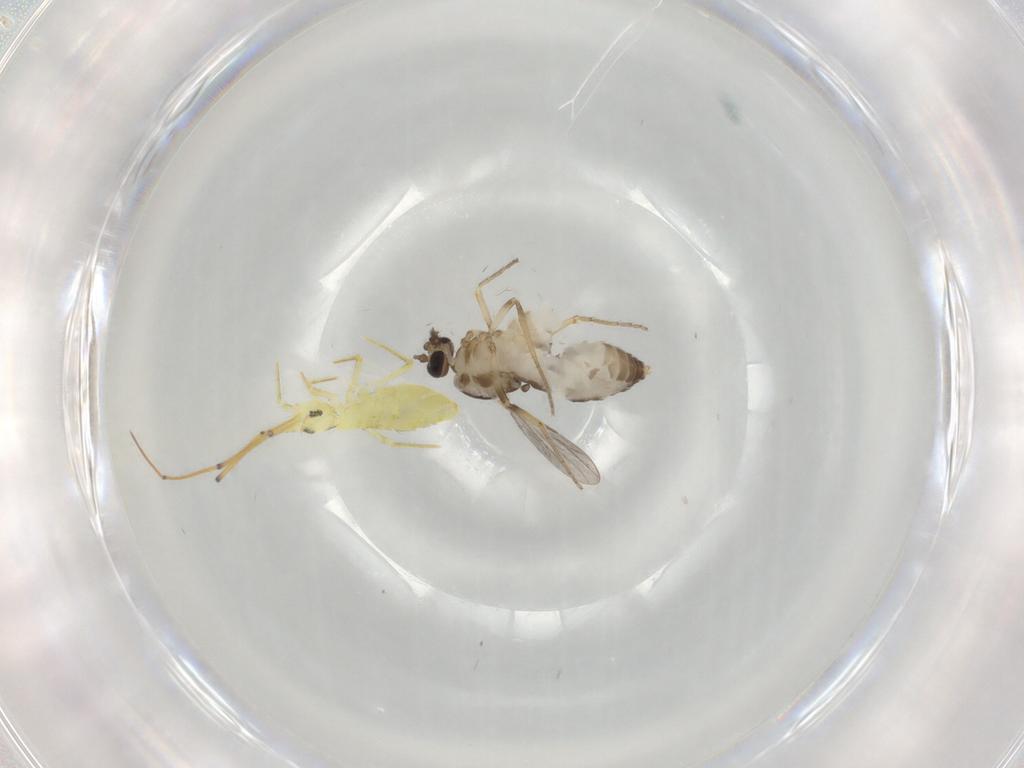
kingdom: Animalia
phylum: Arthropoda
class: Insecta
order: Diptera
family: Ceratopogonidae
